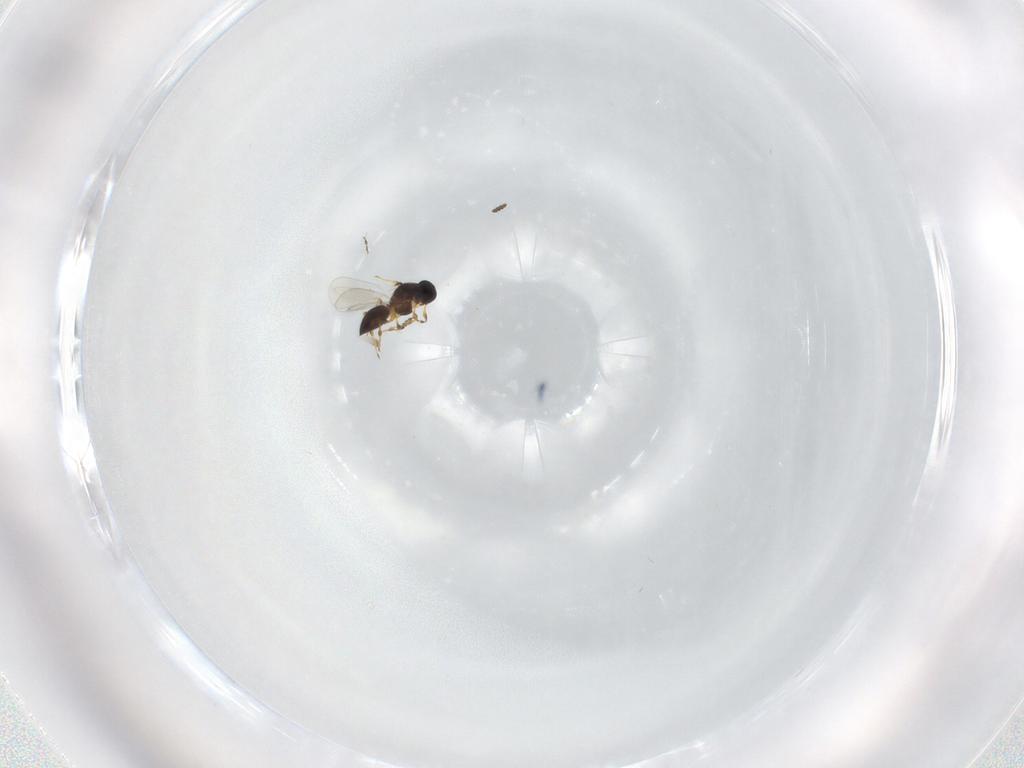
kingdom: Animalia
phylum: Arthropoda
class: Insecta
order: Hymenoptera
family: Platygastridae
